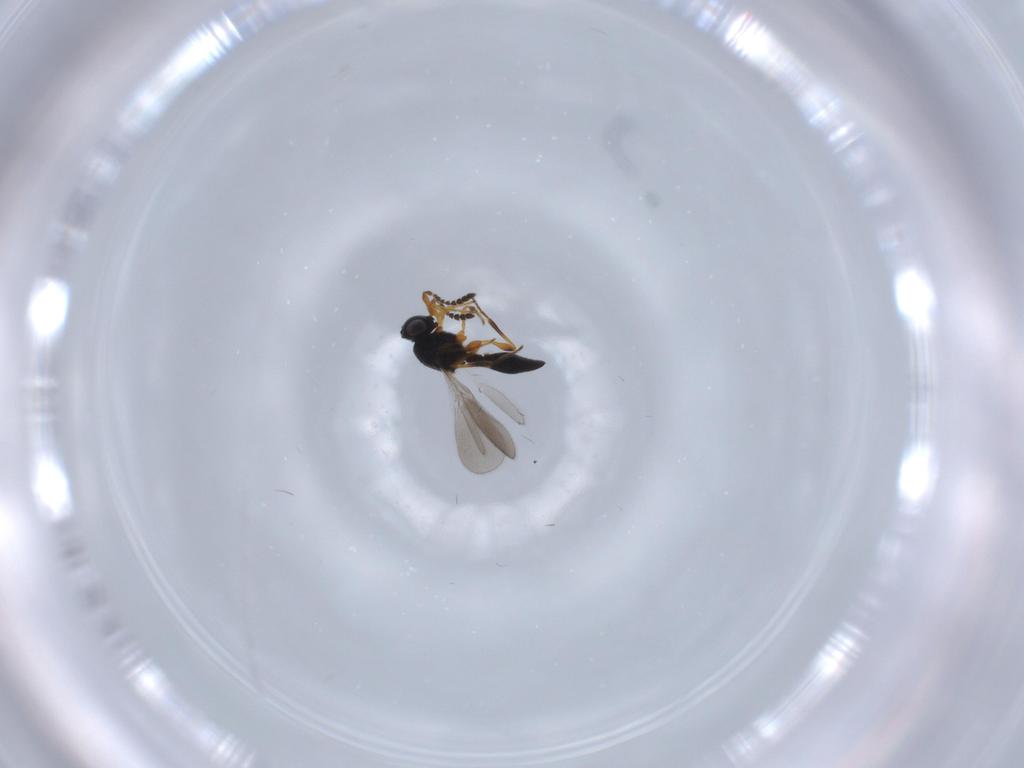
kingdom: Animalia
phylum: Arthropoda
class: Insecta
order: Hymenoptera
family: Platygastridae
